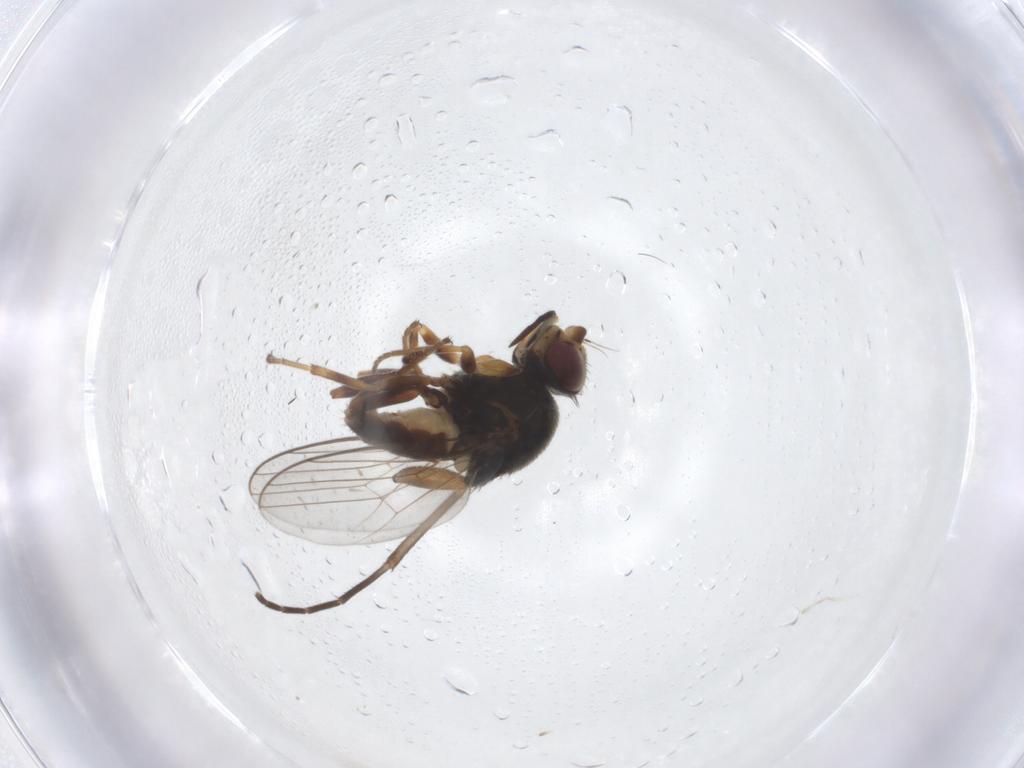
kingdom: Animalia
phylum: Arthropoda
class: Insecta
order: Diptera
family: Chloropidae
